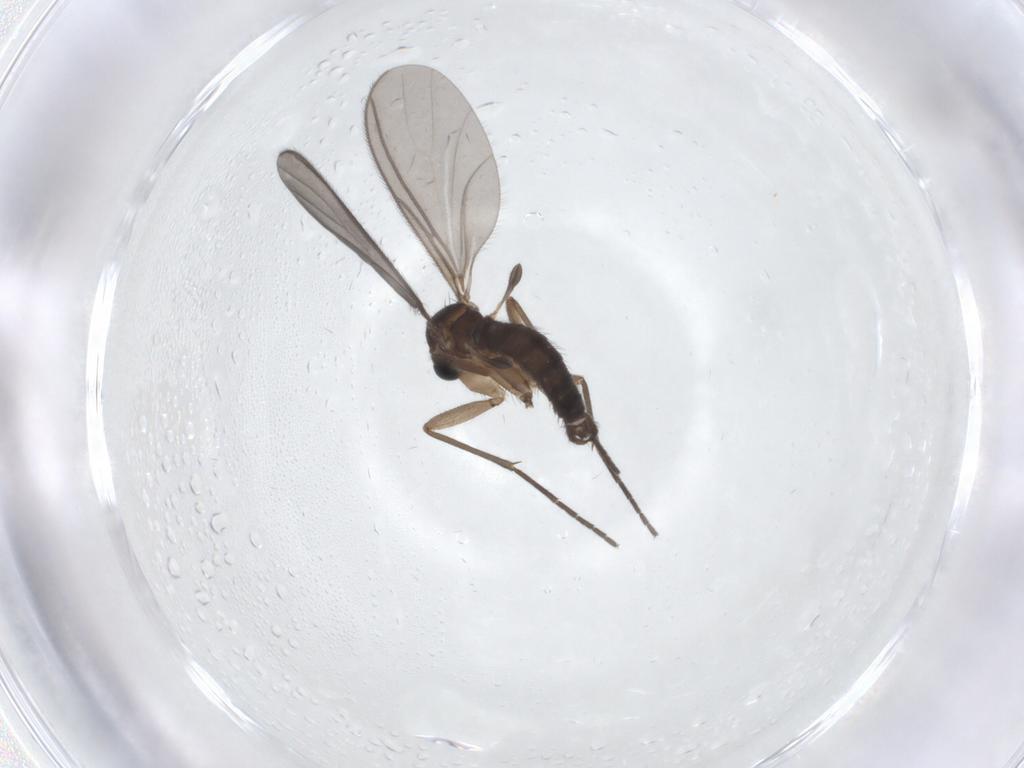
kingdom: Animalia
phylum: Arthropoda
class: Insecta
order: Diptera
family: Sciaridae
